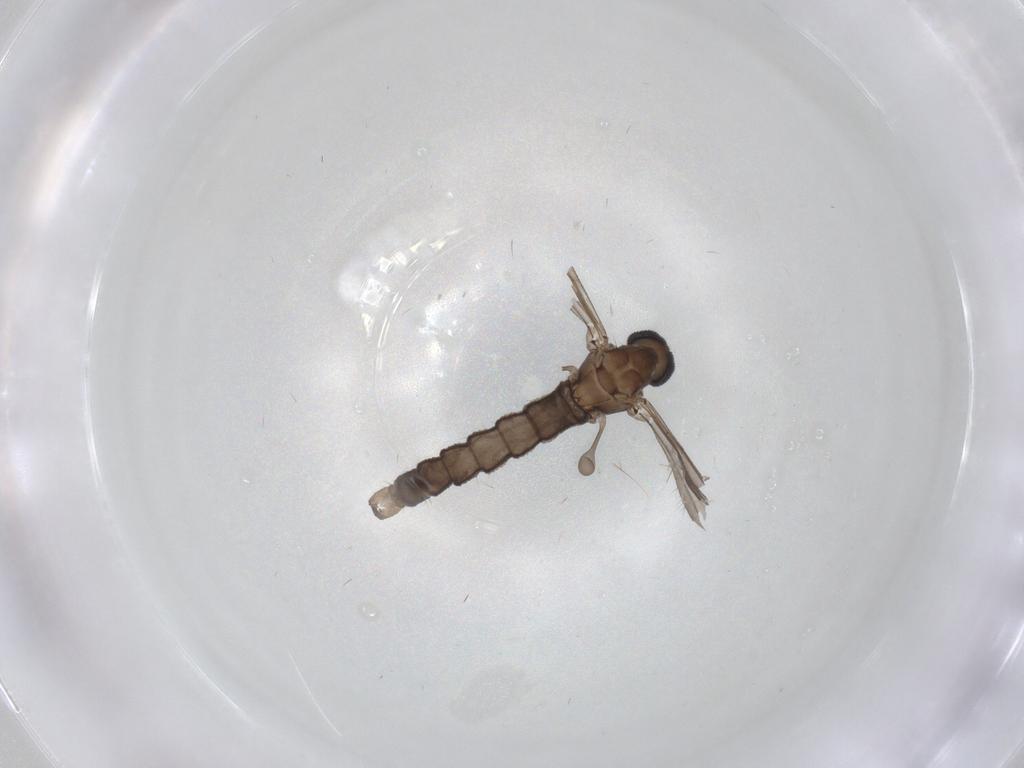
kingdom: Animalia
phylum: Arthropoda
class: Insecta
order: Diptera
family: Limoniidae
